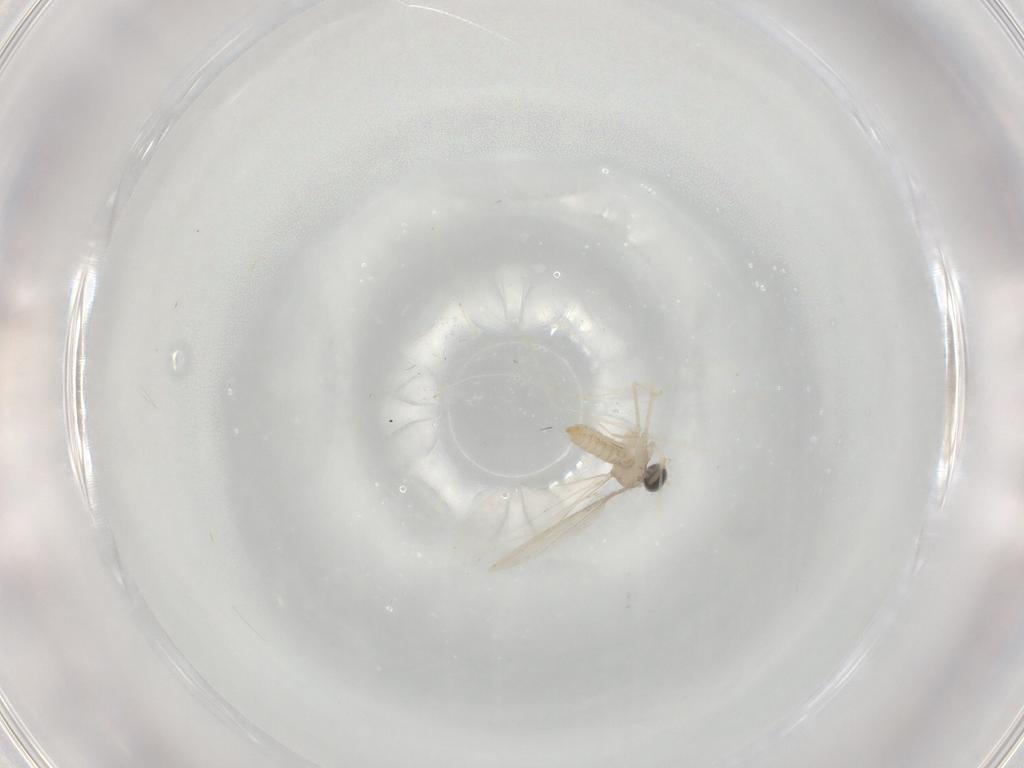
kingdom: Animalia
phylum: Arthropoda
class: Insecta
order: Diptera
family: Cecidomyiidae
